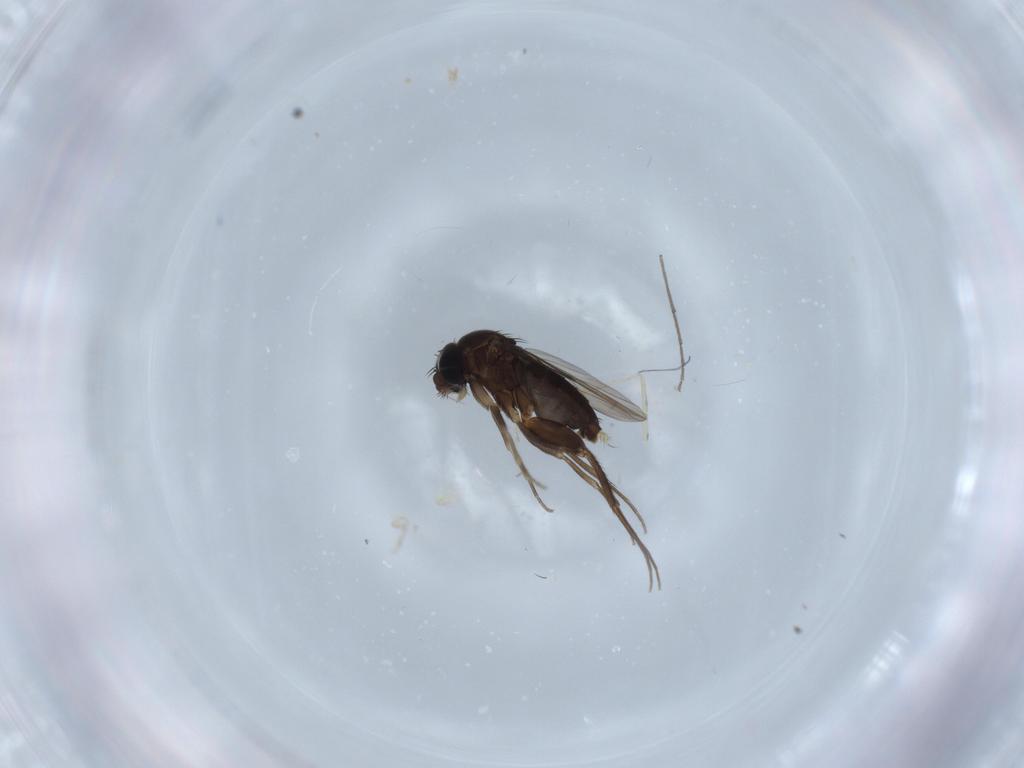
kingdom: Animalia
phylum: Arthropoda
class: Insecta
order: Diptera
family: Phoridae
